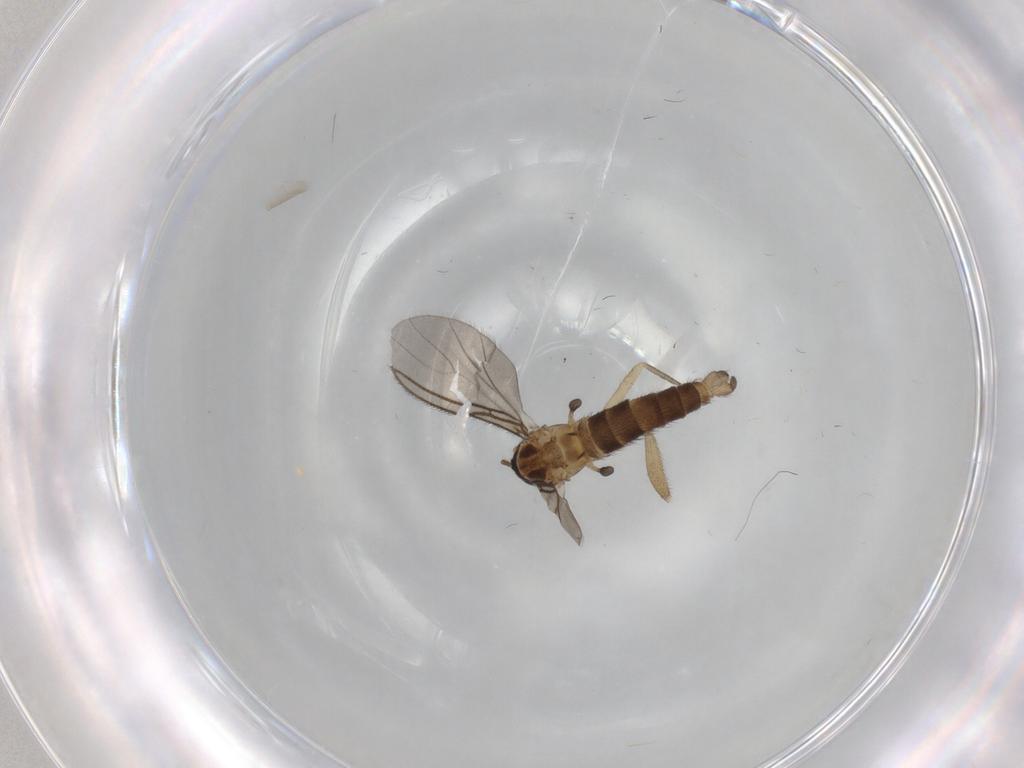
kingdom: Animalia
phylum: Arthropoda
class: Insecta
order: Diptera
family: Sciaridae
